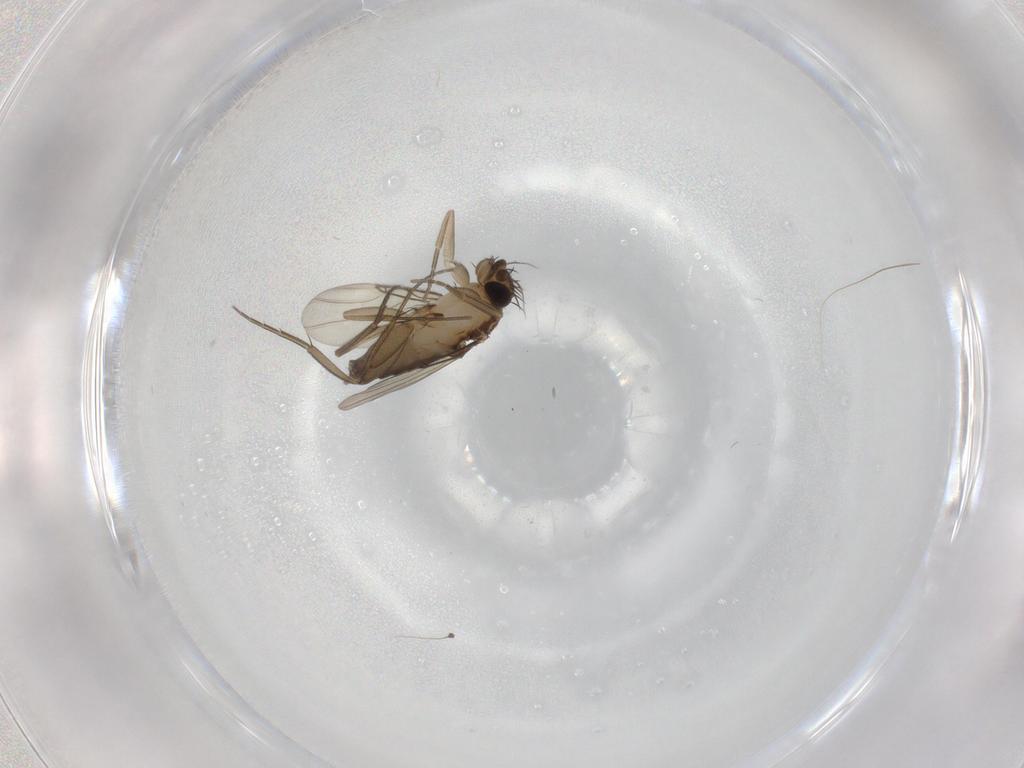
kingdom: Animalia
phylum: Arthropoda
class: Insecta
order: Diptera
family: Phoridae
